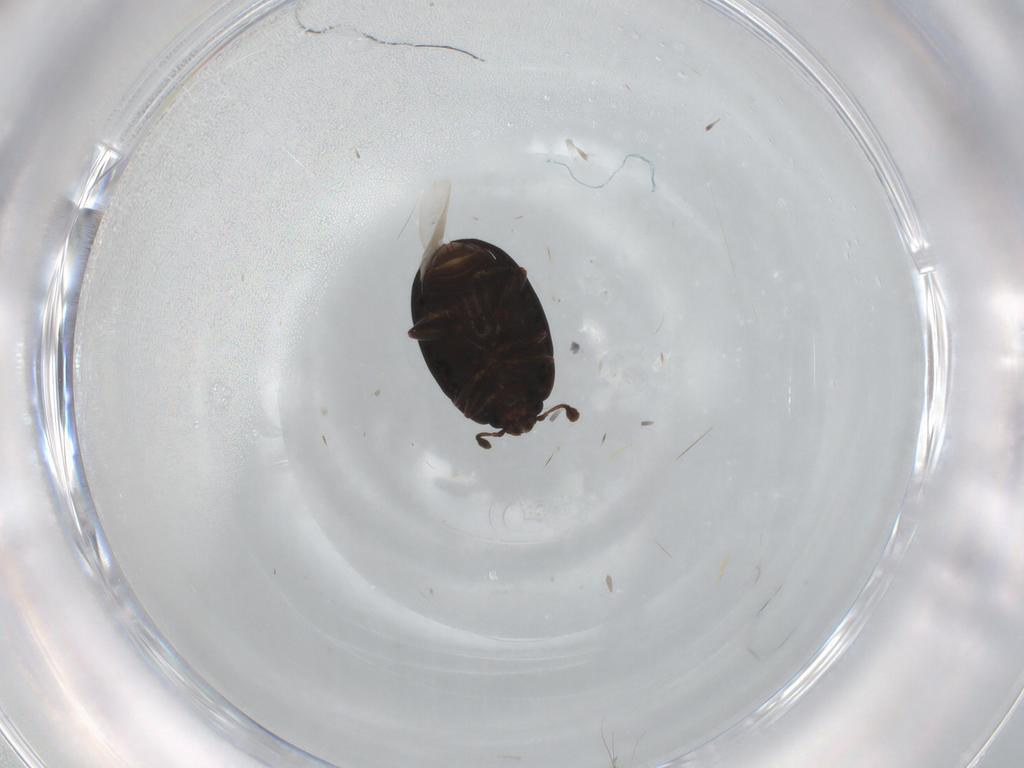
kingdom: Animalia
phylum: Arthropoda
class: Insecta
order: Coleoptera
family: Discolomatidae
